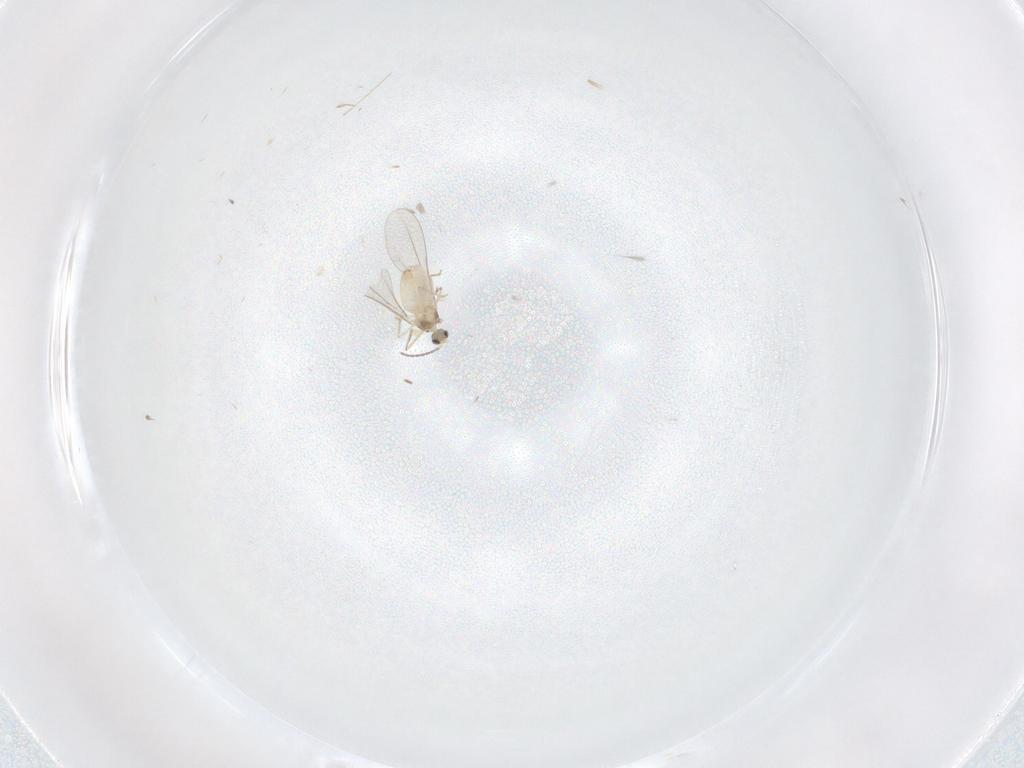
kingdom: Animalia
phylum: Arthropoda
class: Insecta
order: Diptera
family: Cecidomyiidae
